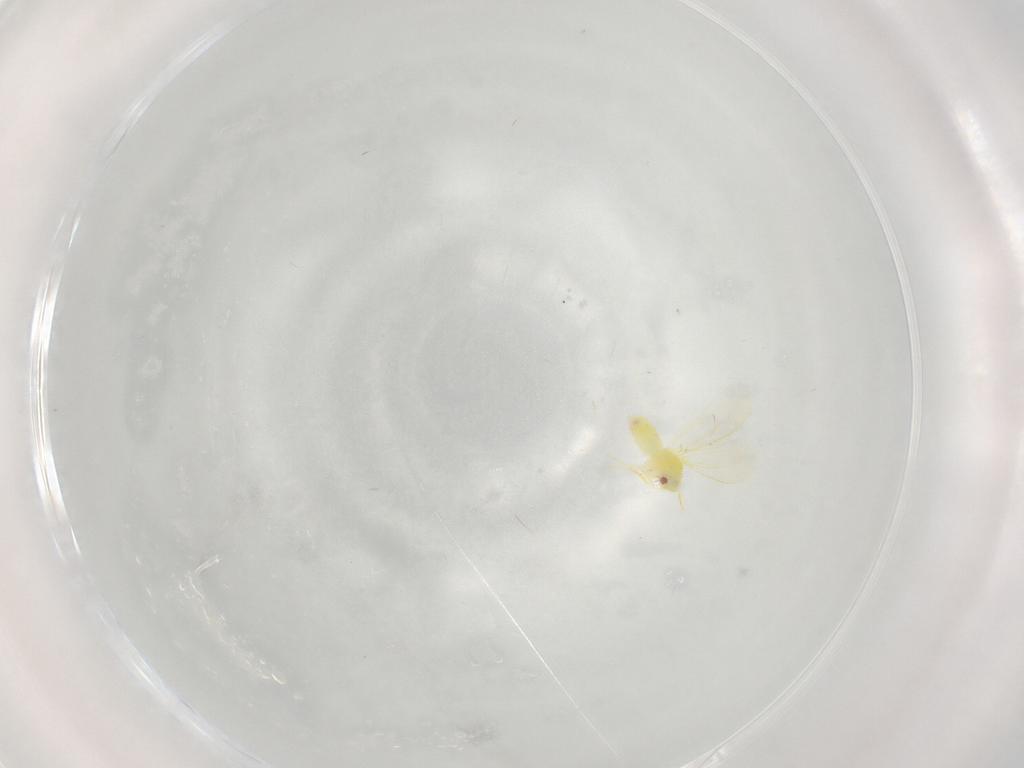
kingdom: Animalia
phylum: Arthropoda
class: Insecta
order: Hemiptera
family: Aleyrodidae
